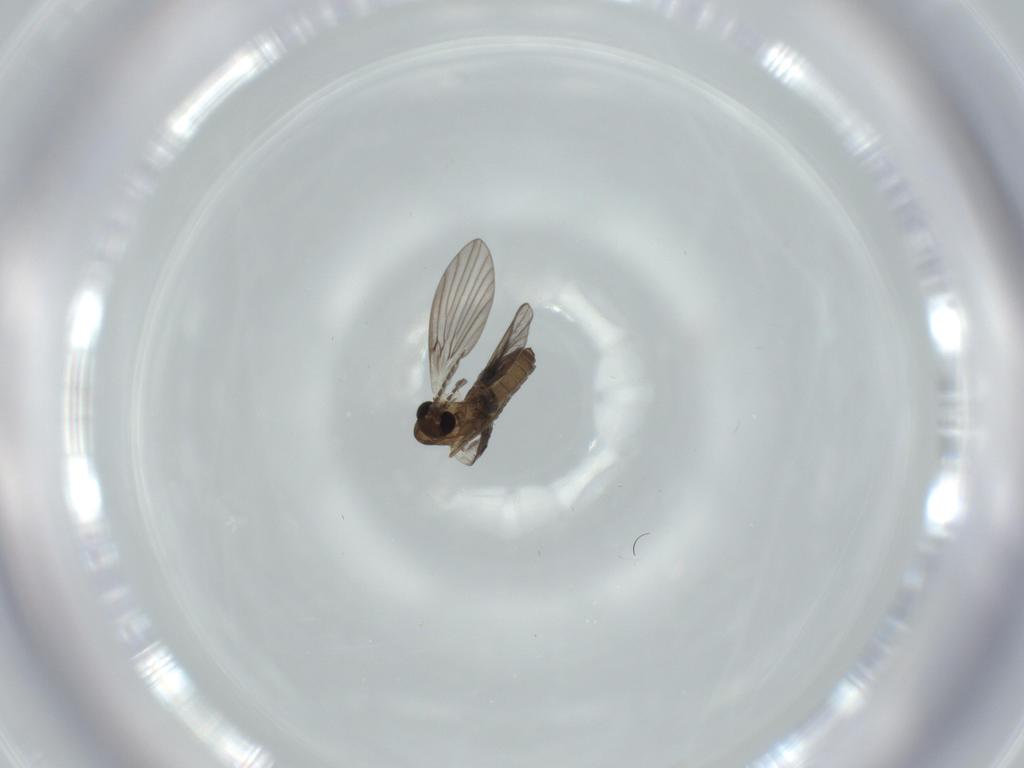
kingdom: Animalia
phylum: Arthropoda
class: Insecta
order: Diptera
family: Psychodidae
